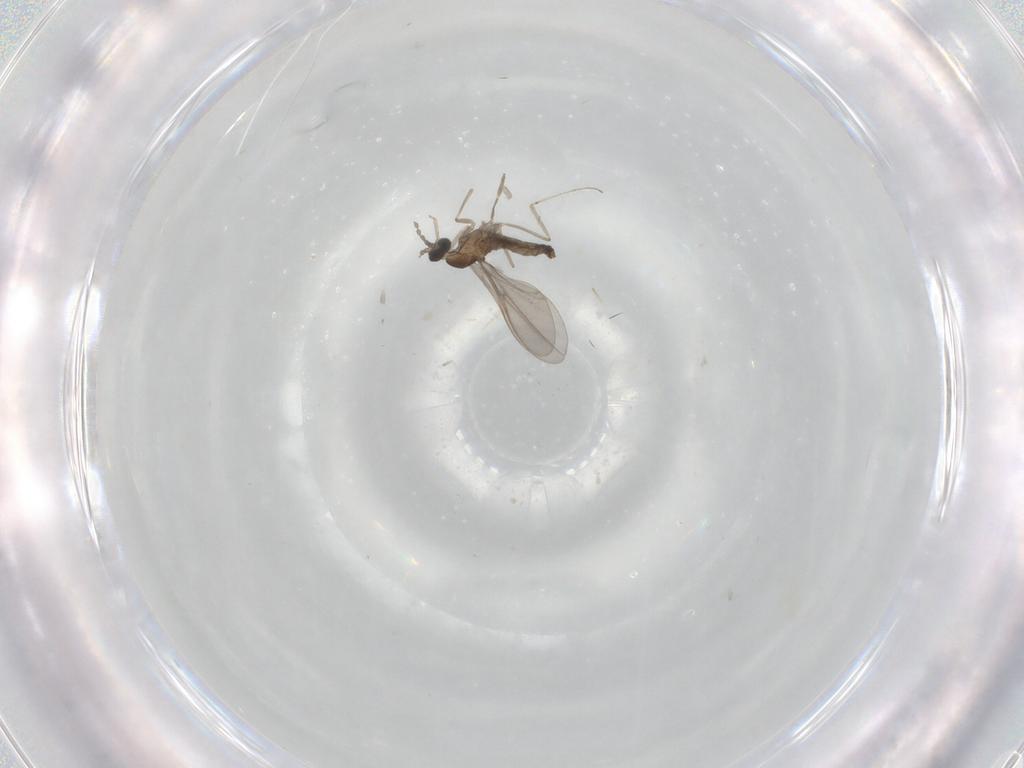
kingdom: Animalia
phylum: Arthropoda
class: Insecta
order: Diptera
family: Cecidomyiidae
